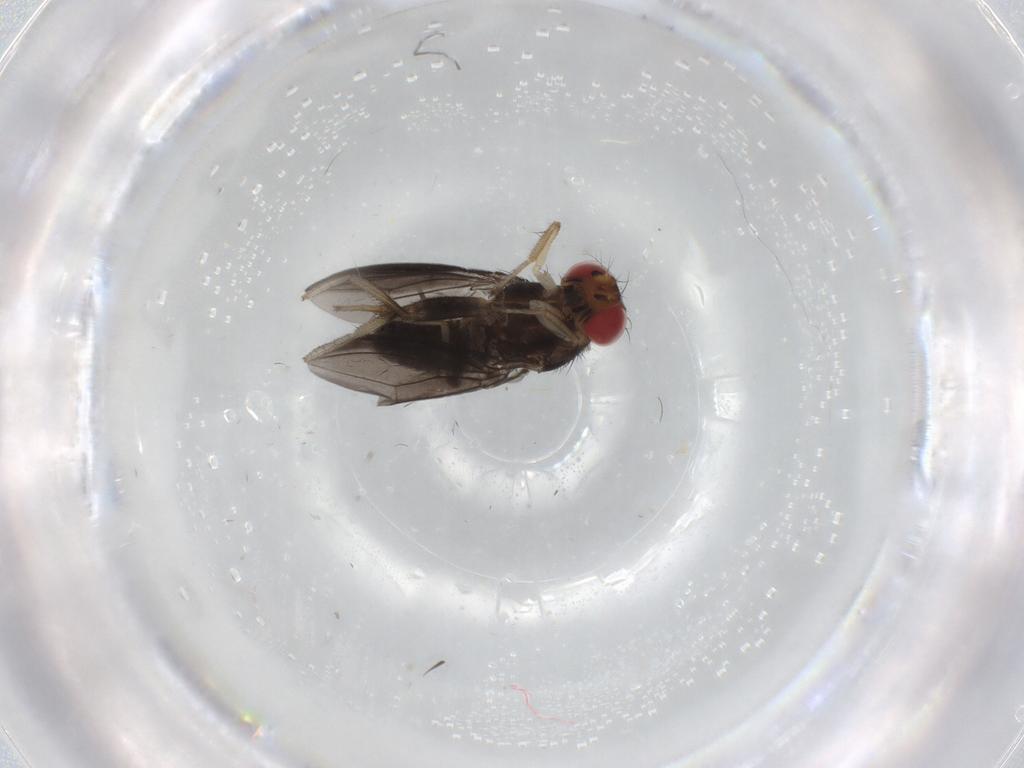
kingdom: Animalia
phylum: Arthropoda
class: Insecta
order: Diptera
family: Drosophilidae
